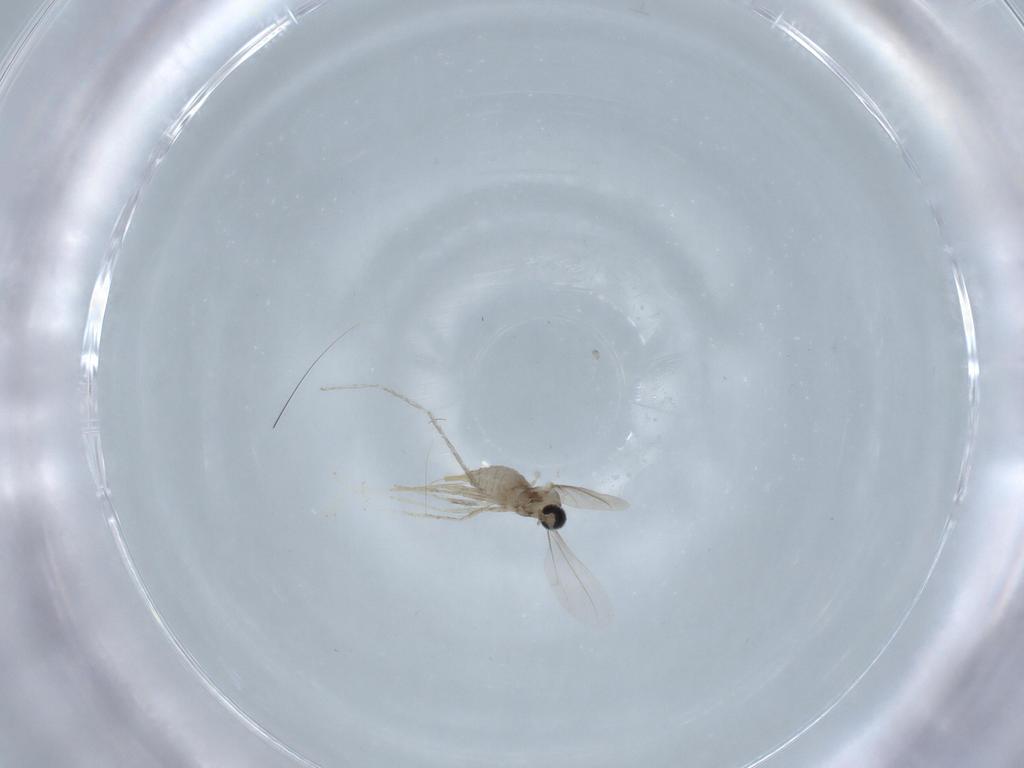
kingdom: Animalia
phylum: Arthropoda
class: Insecta
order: Diptera
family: Cecidomyiidae
